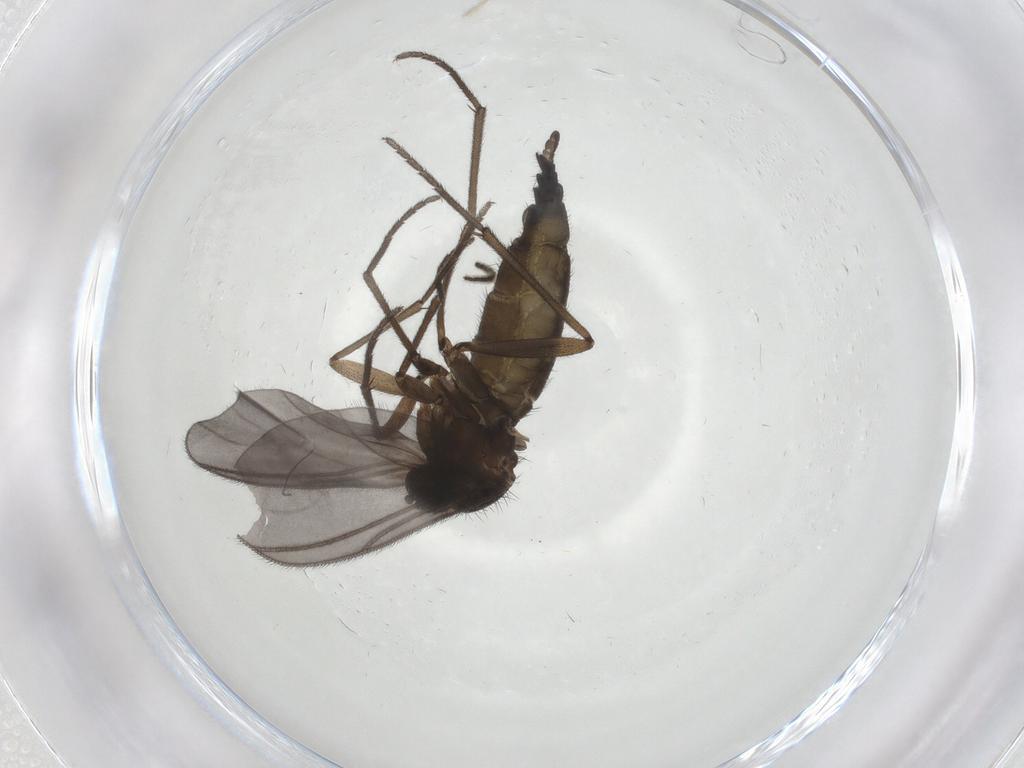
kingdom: Animalia
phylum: Arthropoda
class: Insecta
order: Diptera
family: Sciaridae
